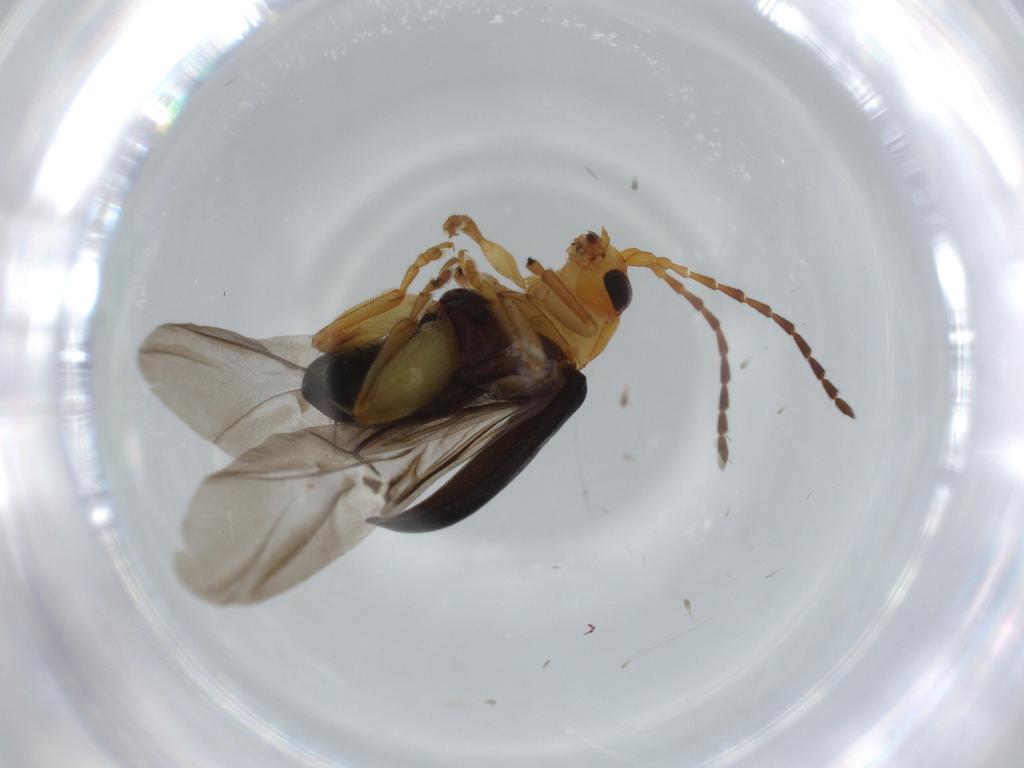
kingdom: Animalia
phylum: Arthropoda
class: Insecta
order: Coleoptera
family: Chrysomelidae
